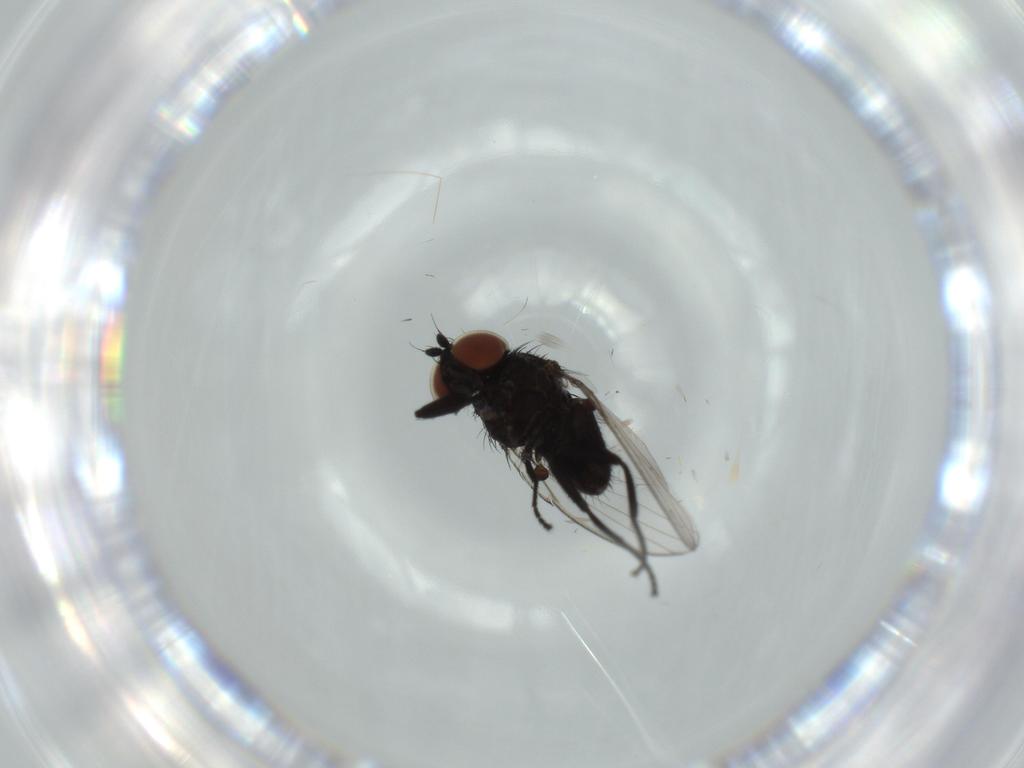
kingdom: Animalia
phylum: Arthropoda
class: Insecta
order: Diptera
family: Milichiidae
